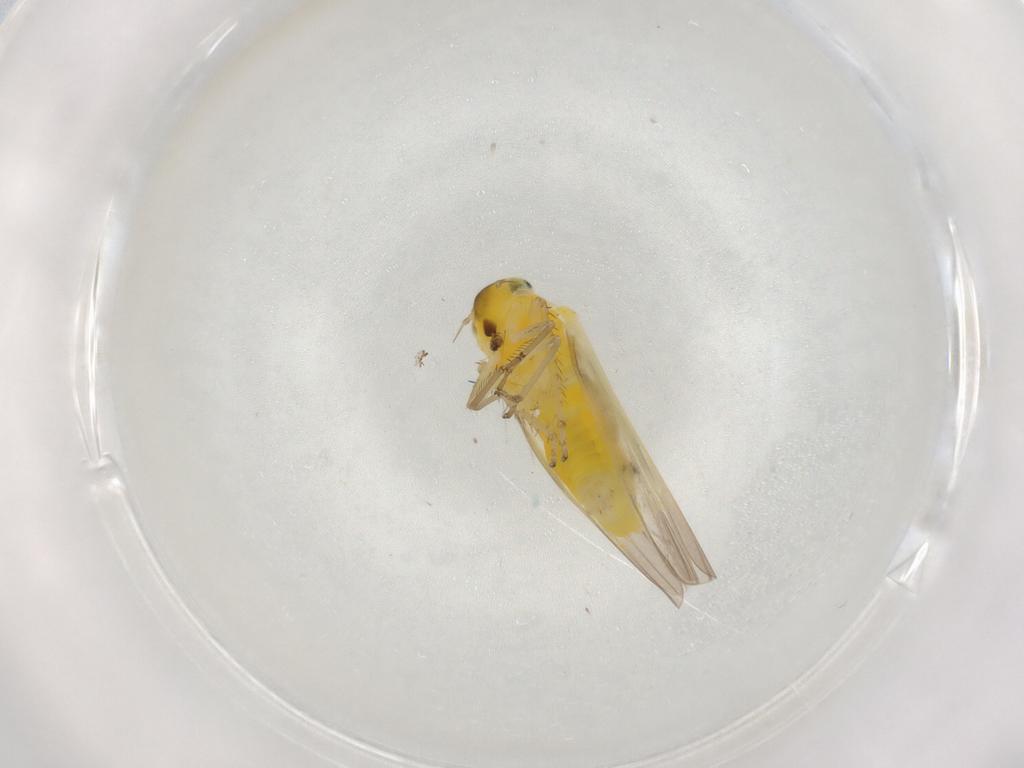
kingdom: Animalia
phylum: Arthropoda
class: Insecta
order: Hemiptera
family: Cicadellidae
